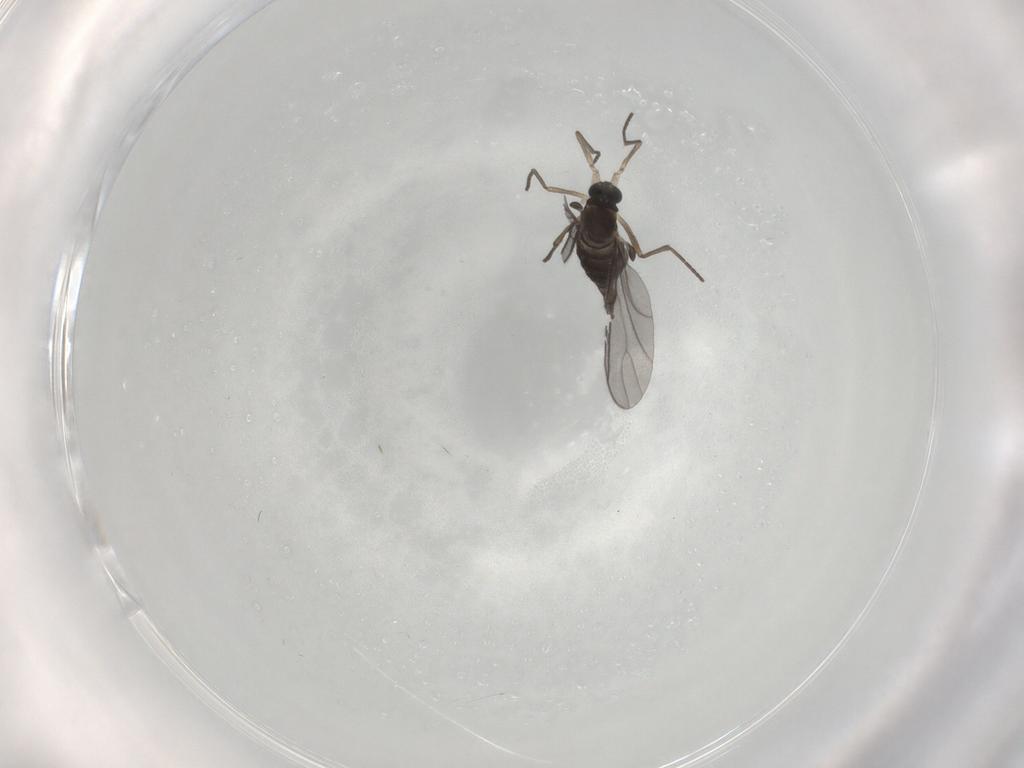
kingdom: Animalia
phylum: Arthropoda
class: Insecta
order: Diptera
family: Sciaridae
